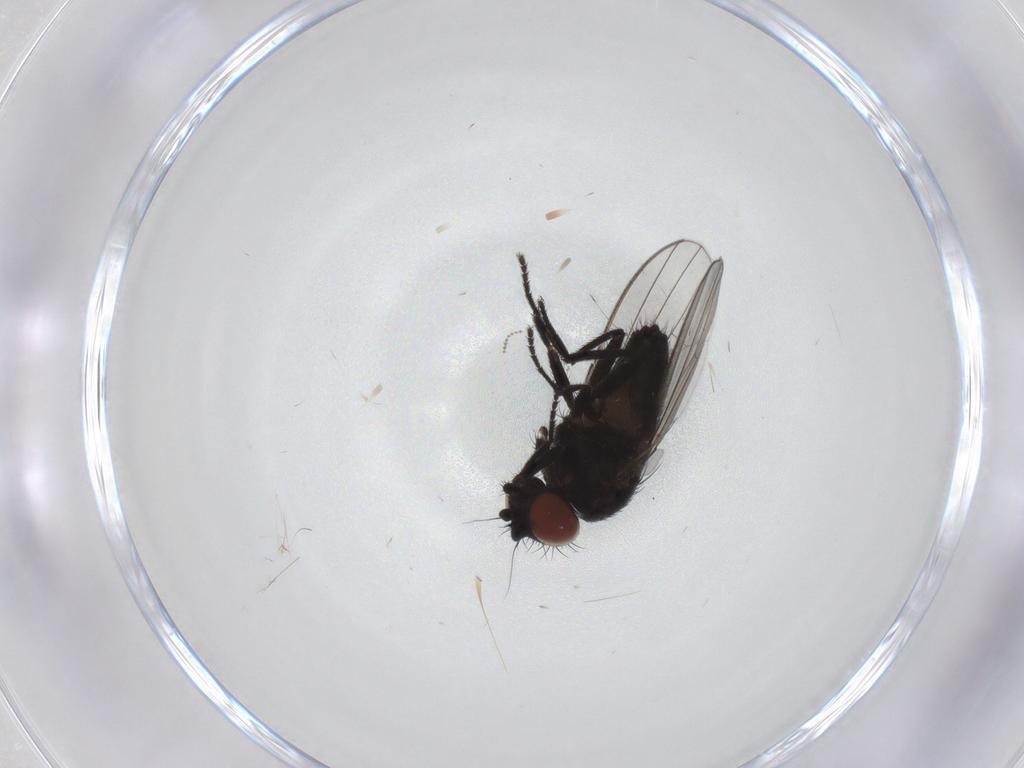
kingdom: Animalia
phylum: Arthropoda
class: Insecta
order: Diptera
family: Milichiidae
